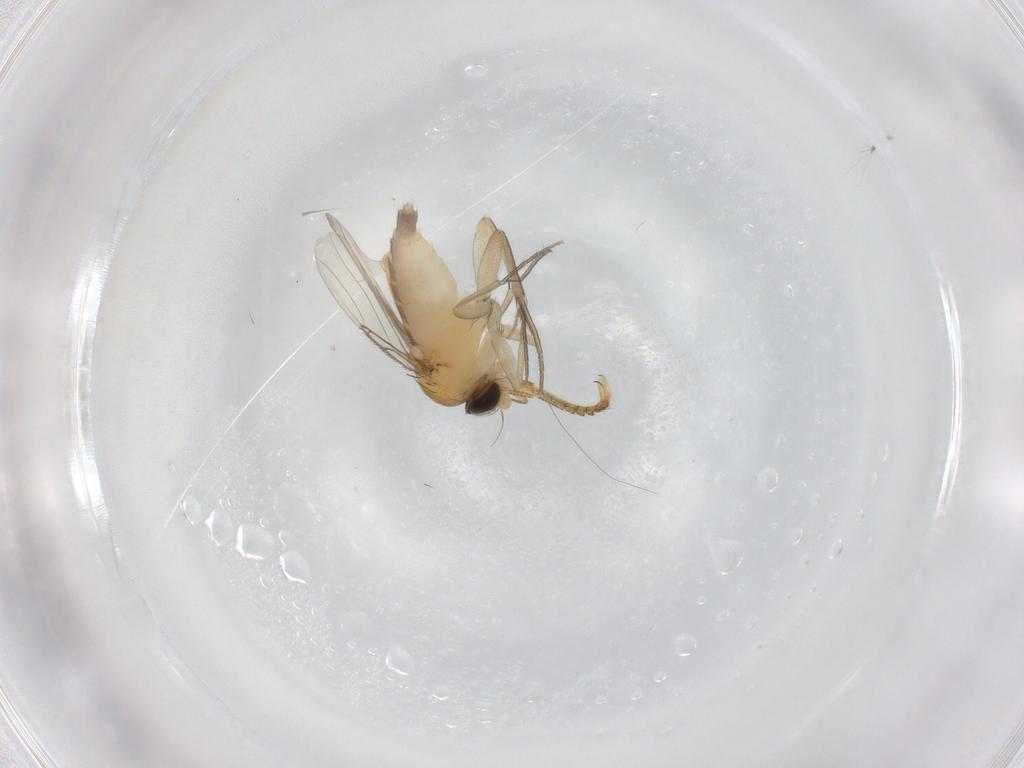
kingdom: Animalia
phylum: Arthropoda
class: Insecta
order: Diptera
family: Pipunculidae
